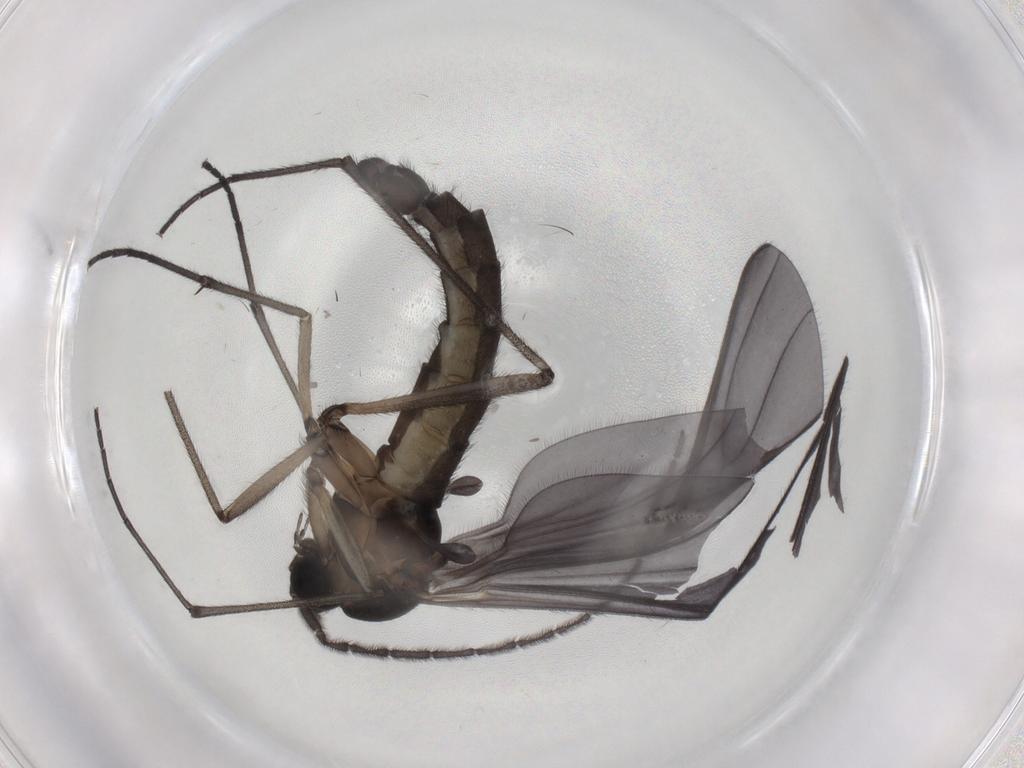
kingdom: Animalia
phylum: Arthropoda
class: Insecta
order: Diptera
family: Sciaridae
